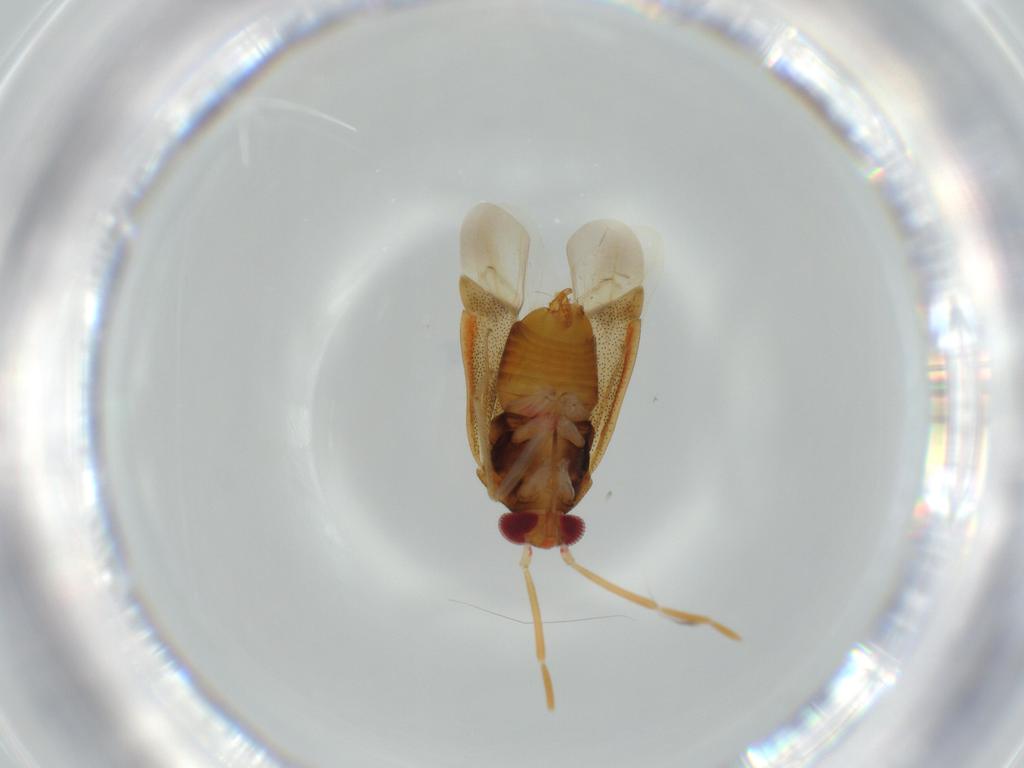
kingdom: Animalia
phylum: Arthropoda
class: Insecta
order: Hemiptera
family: Miridae
